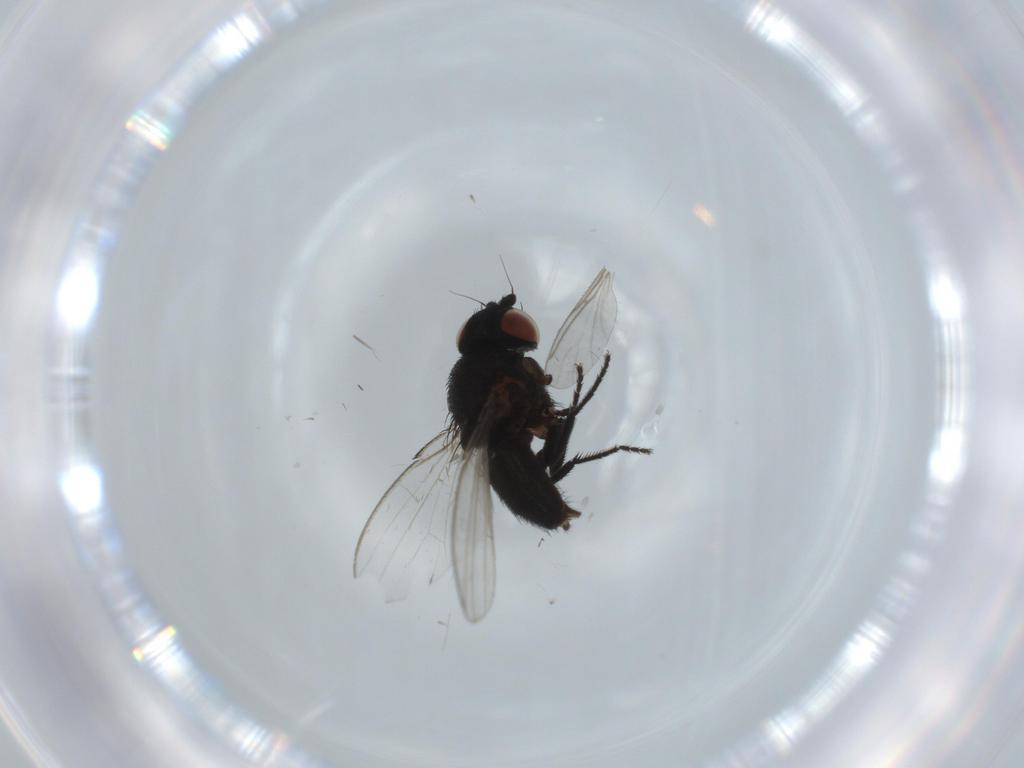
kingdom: Animalia
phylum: Arthropoda
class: Insecta
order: Diptera
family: Milichiidae
